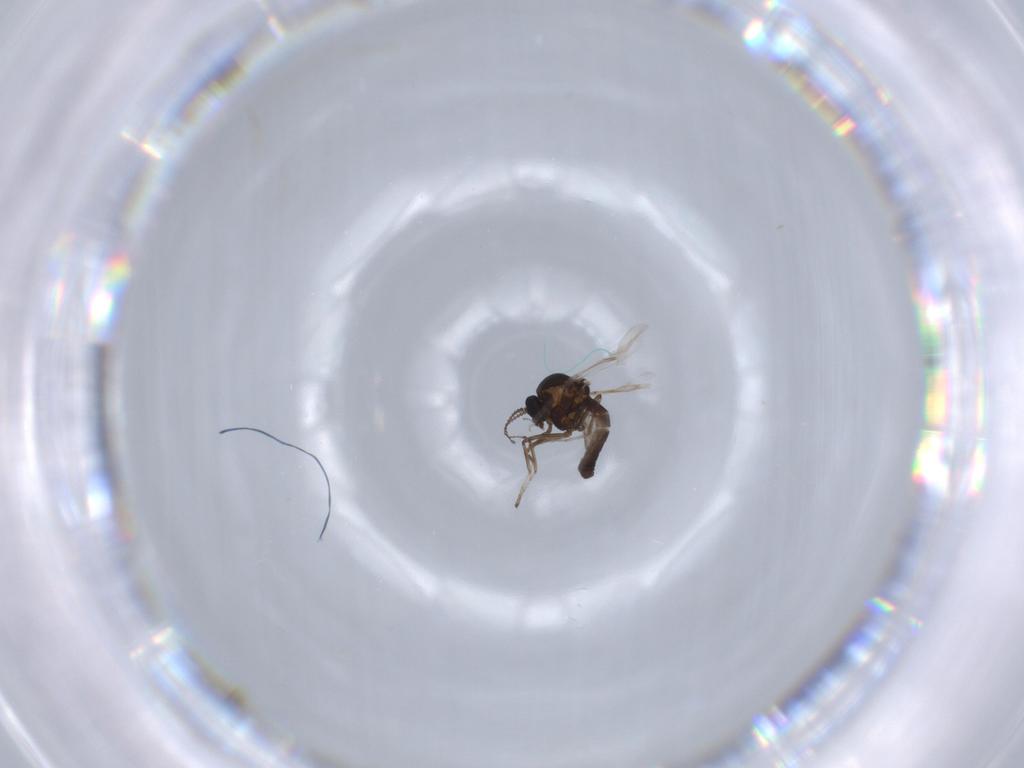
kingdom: Animalia
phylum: Arthropoda
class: Insecta
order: Diptera
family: Ceratopogonidae
